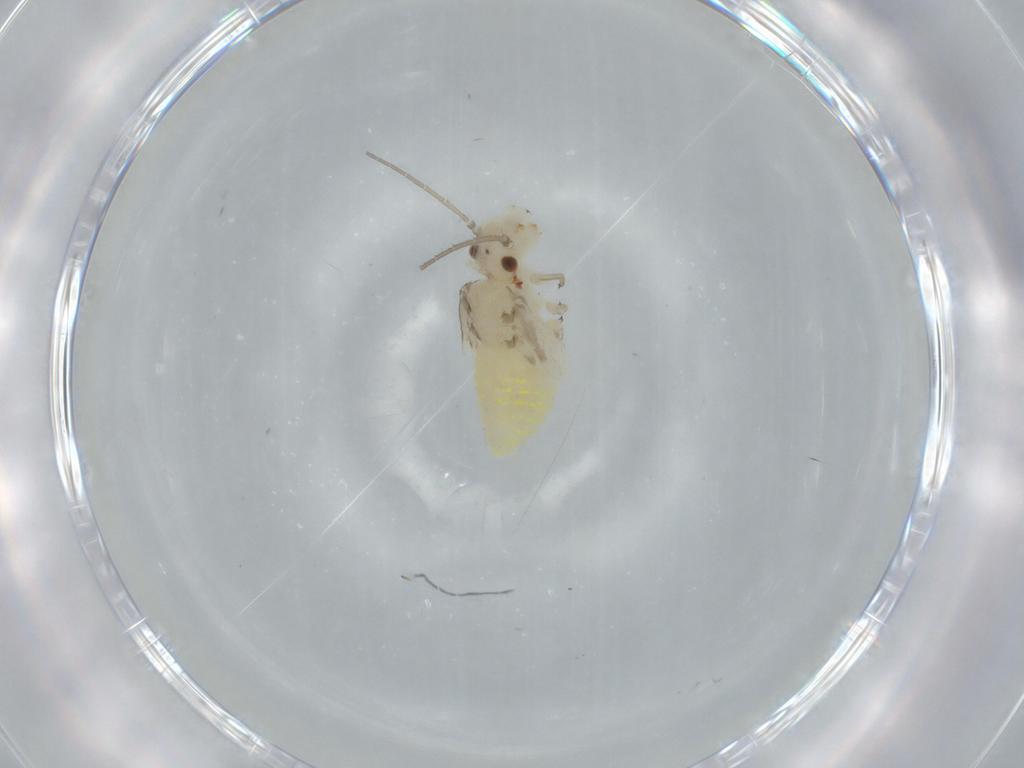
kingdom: Animalia
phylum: Arthropoda
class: Insecta
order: Psocodea
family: Caeciliusidae
